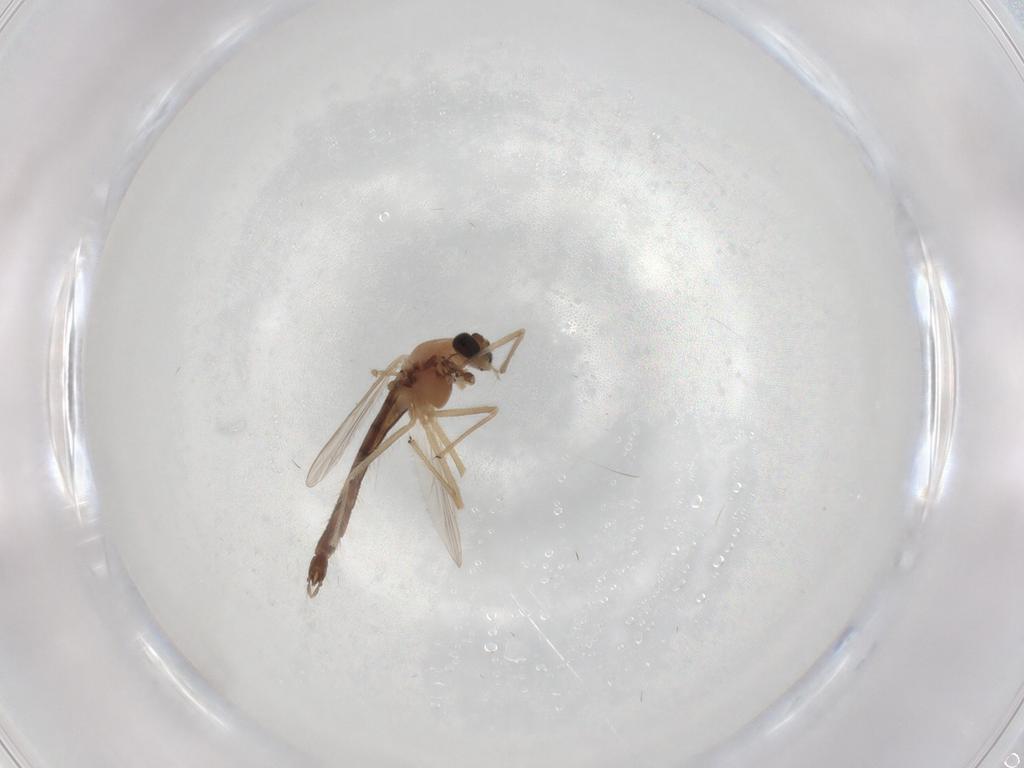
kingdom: Animalia
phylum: Arthropoda
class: Insecta
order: Diptera
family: Chironomidae
